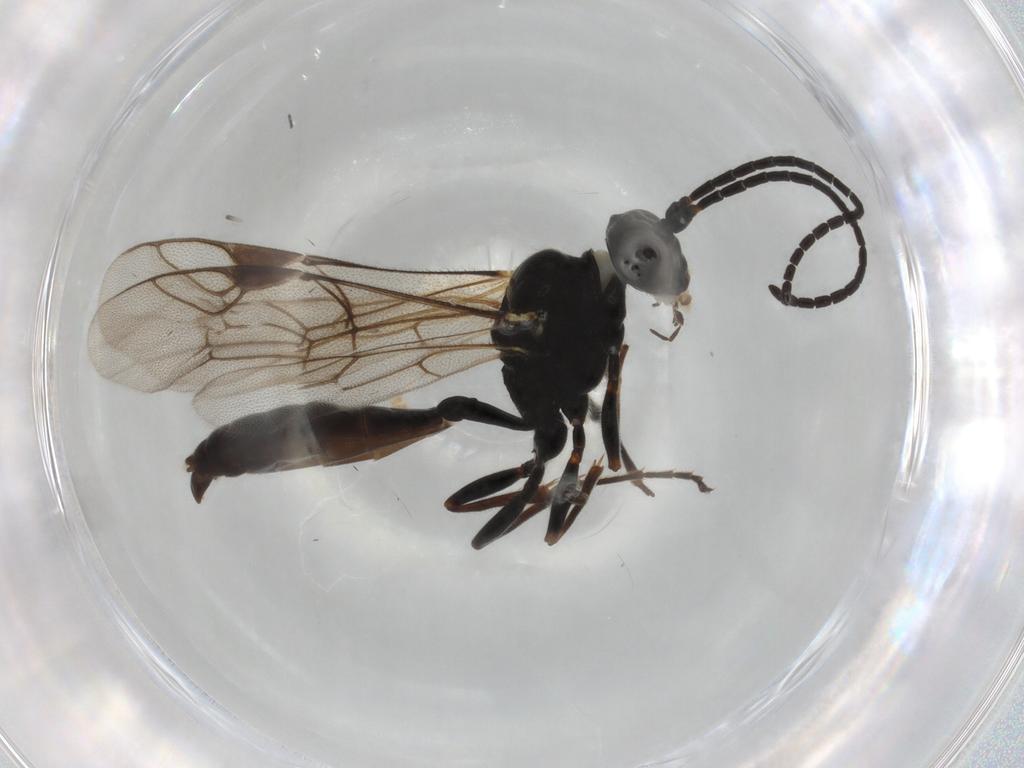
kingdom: Animalia
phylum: Arthropoda
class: Insecta
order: Hymenoptera
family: Ichneumonidae
